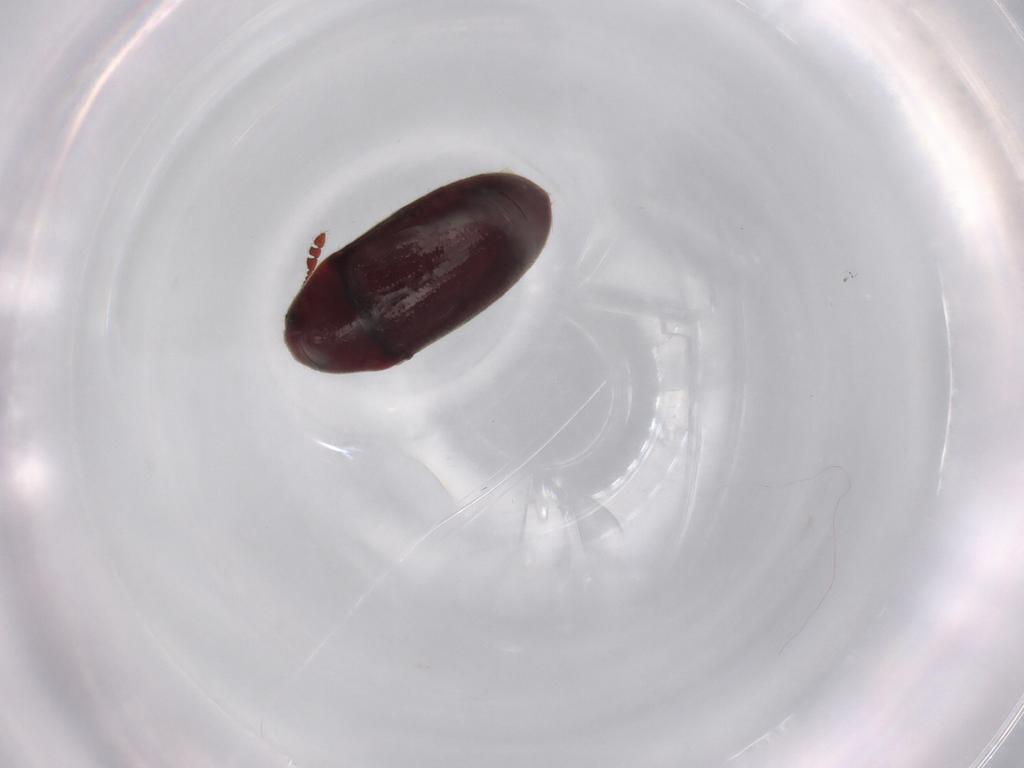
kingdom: Animalia
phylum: Arthropoda
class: Insecta
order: Coleoptera
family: Throscidae
